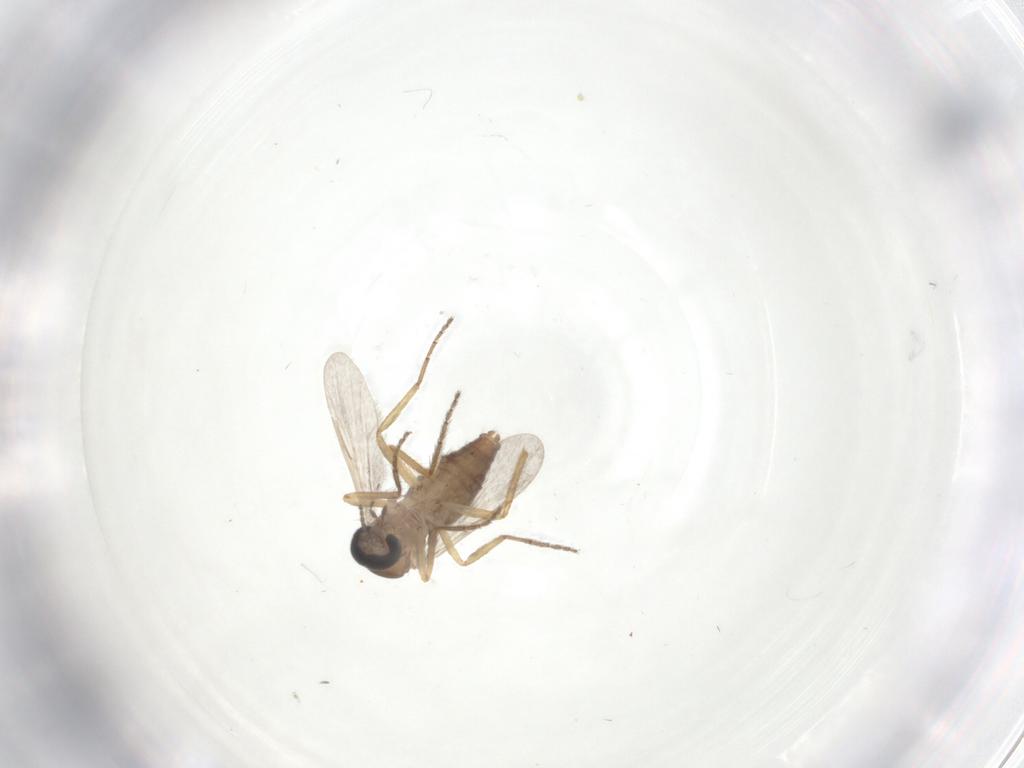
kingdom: Animalia
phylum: Arthropoda
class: Insecta
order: Diptera
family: Ceratopogonidae
